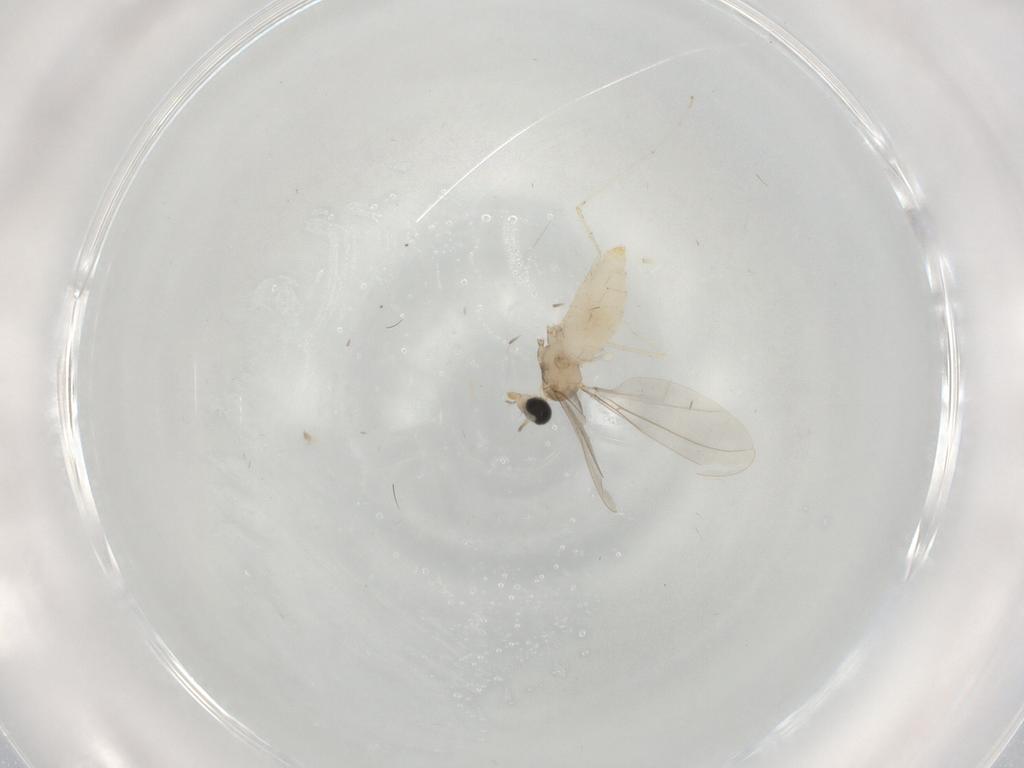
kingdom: Animalia
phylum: Arthropoda
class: Insecta
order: Diptera
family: Cecidomyiidae
